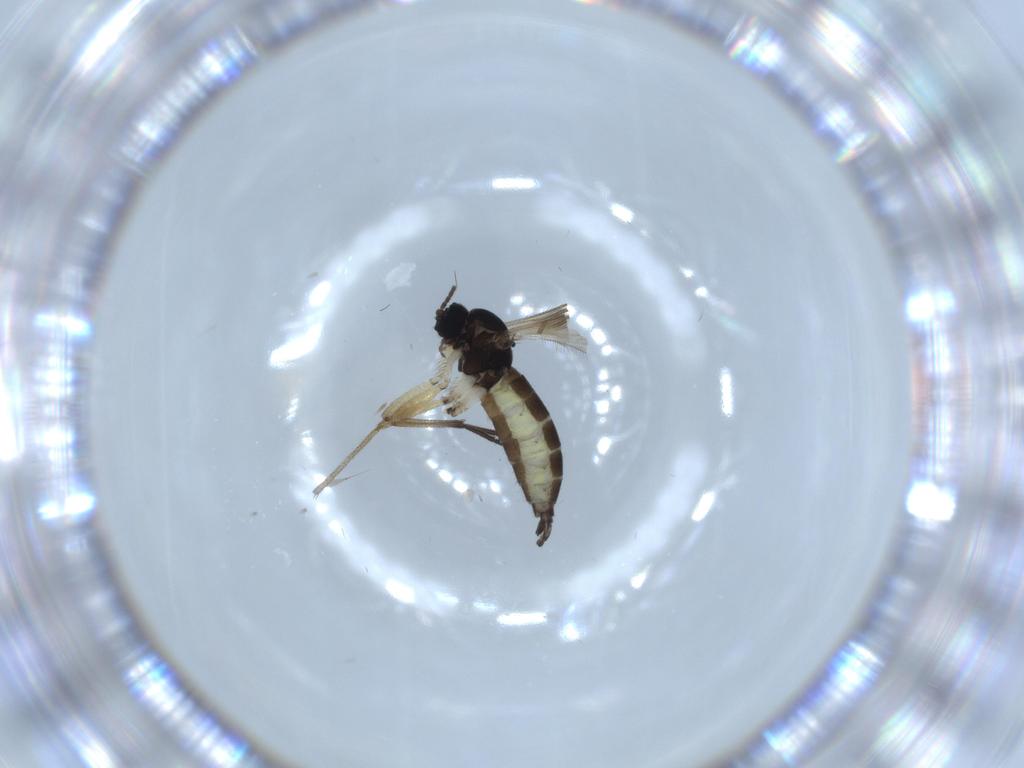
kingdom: Animalia
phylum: Arthropoda
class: Insecta
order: Diptera
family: Sciaridae
